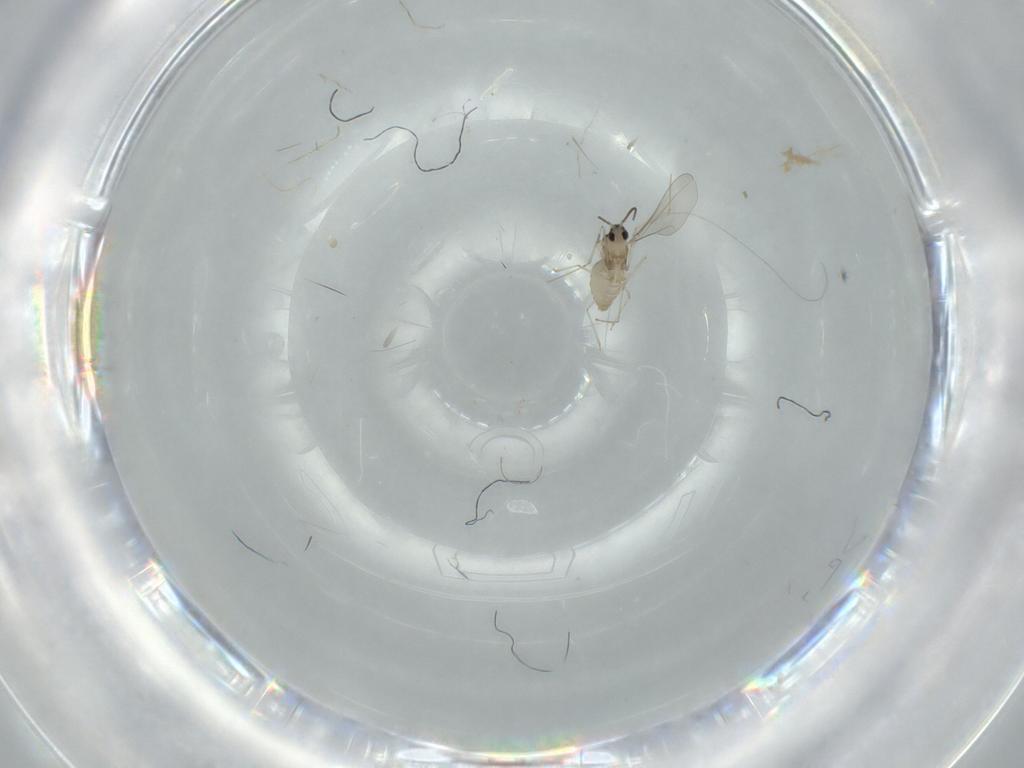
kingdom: Animalia
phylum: Arthropoda
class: Insecta
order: Diptera
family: Cecidomyiidae
